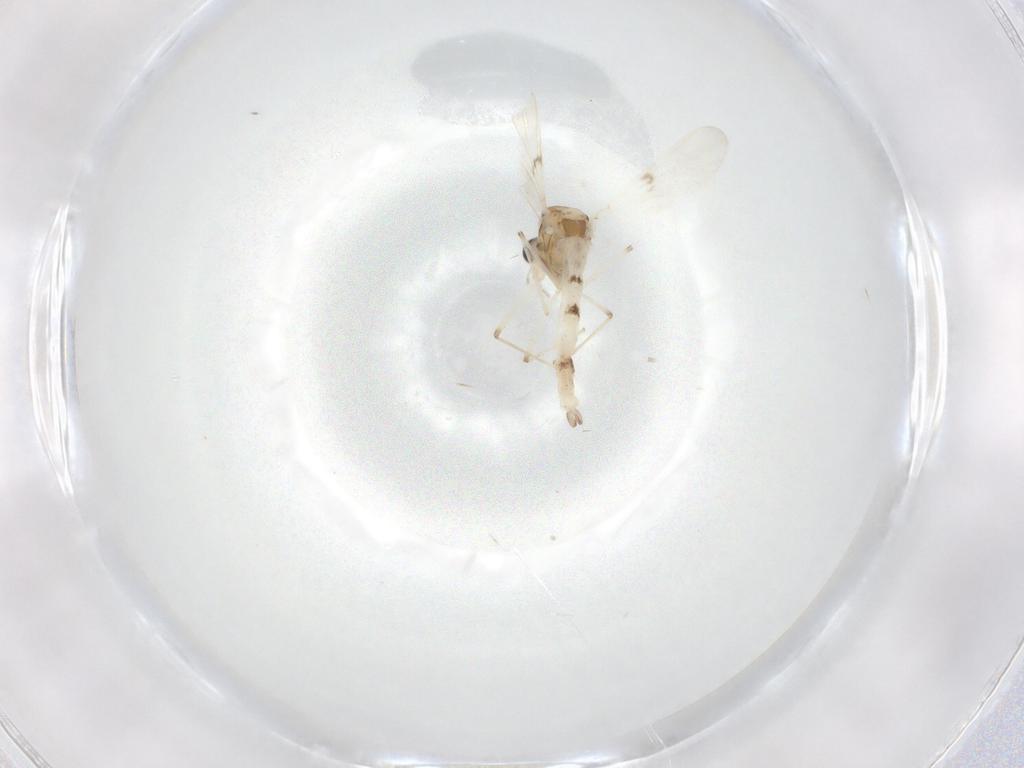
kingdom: Animalia
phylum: Arthropoda
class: Insecta
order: Diptera
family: Chironomidae
